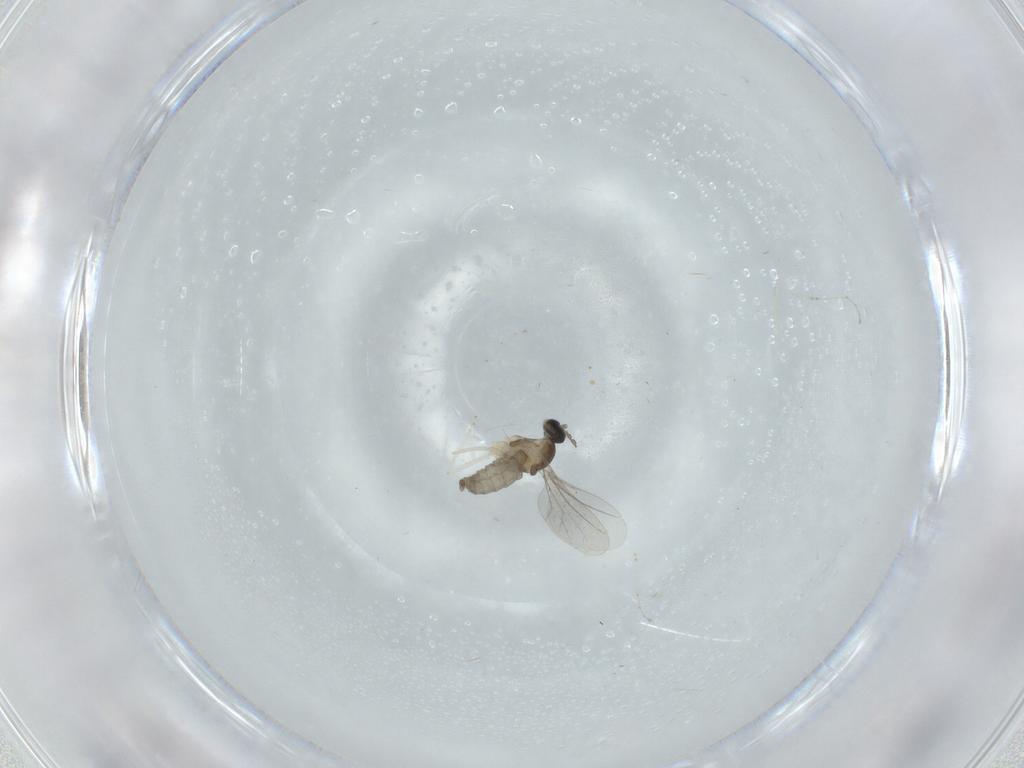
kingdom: Animalia
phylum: Arthropoda
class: Insecta
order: Diptera
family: Cecidomyiidae
